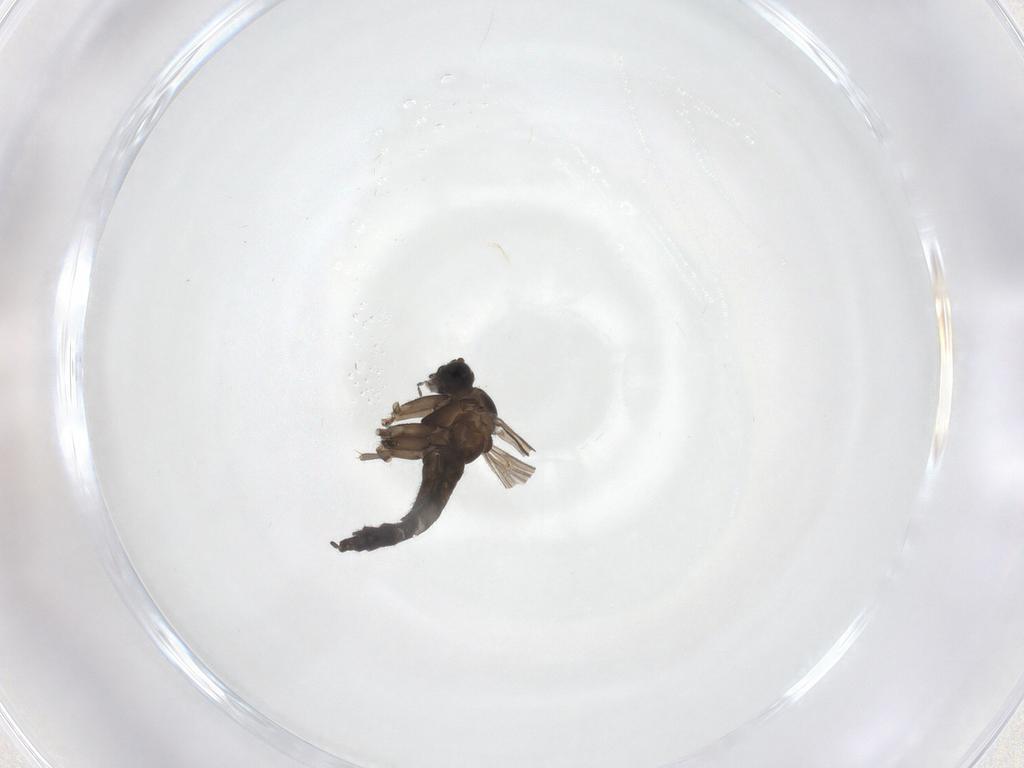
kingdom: Animalia
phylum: Arthropoda
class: Insecta
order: Diptera
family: Sciaridae
